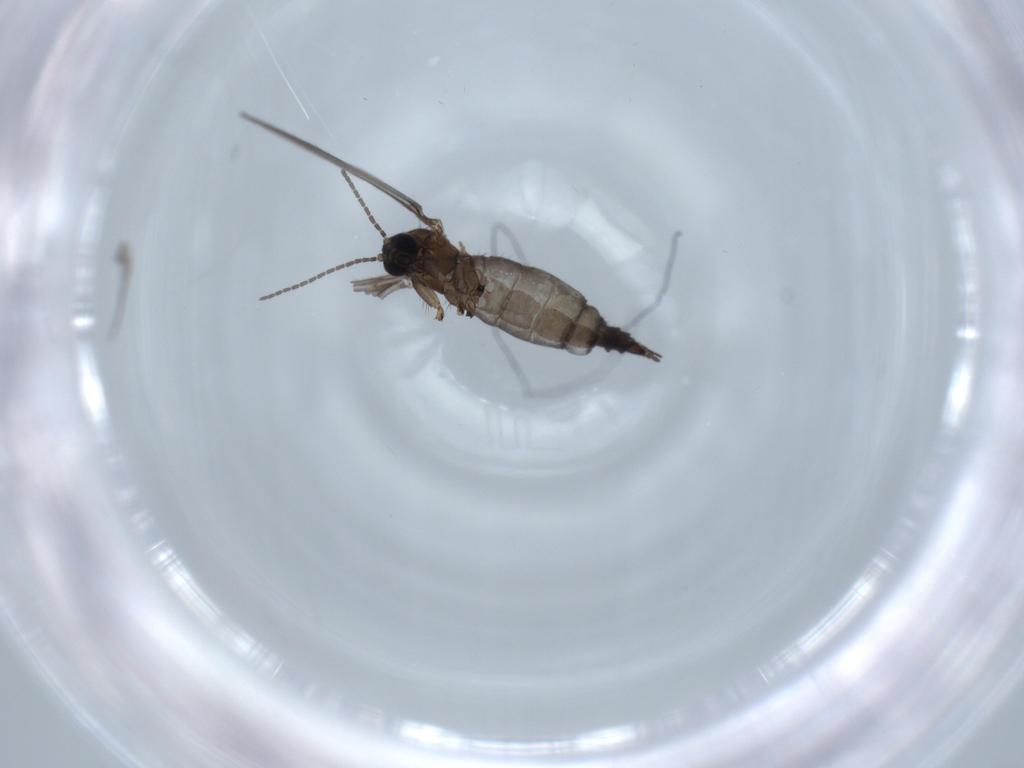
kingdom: Animalia
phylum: Arthropoda
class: Insecta
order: Diptera
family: Sciaridae
